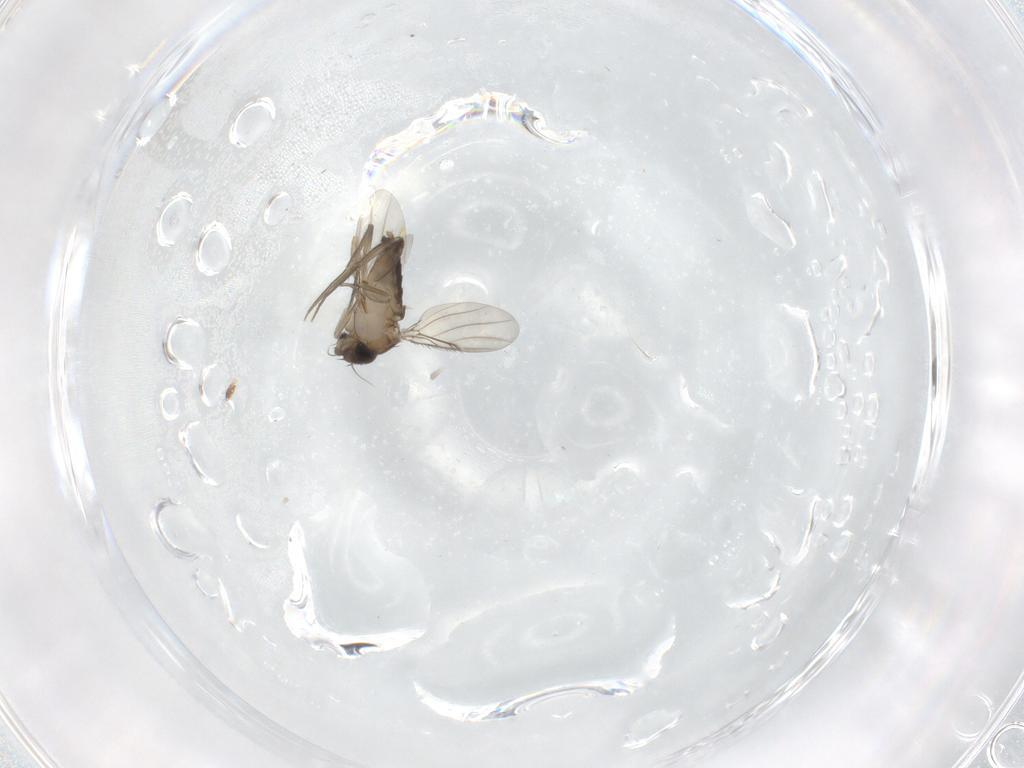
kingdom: Animalia
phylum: Arthropoda
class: Insecta
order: Diptera
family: Phoridae
